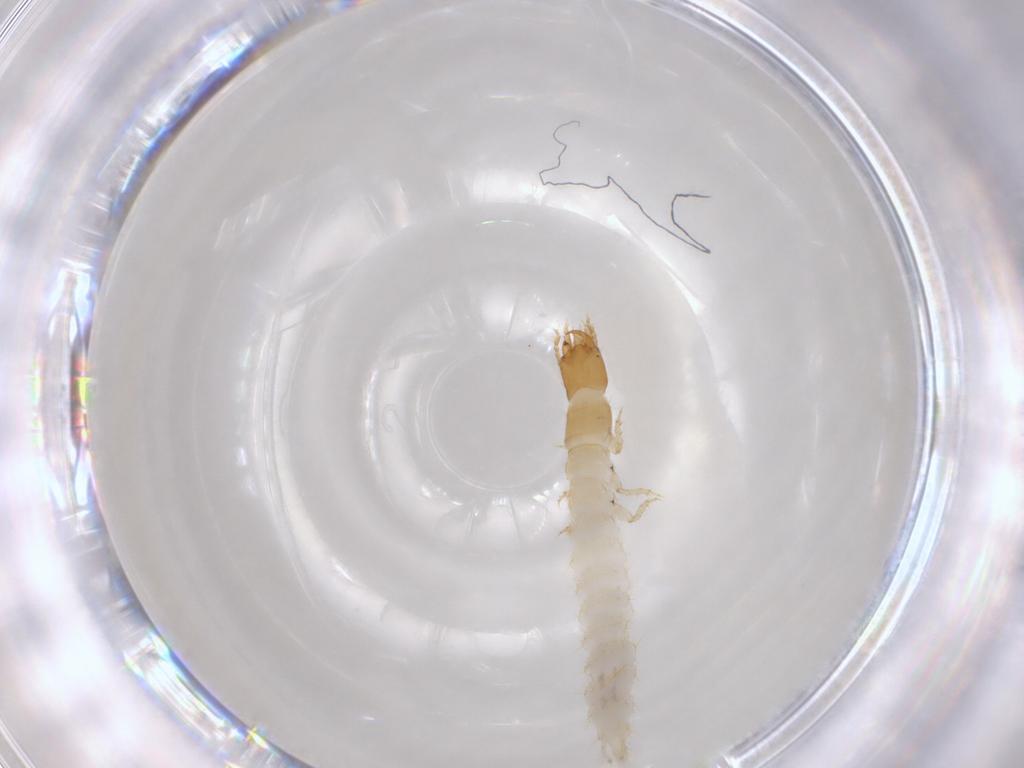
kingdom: Animalia
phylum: Arthropoda
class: Insecta
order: Coleoptera
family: Carabidae
